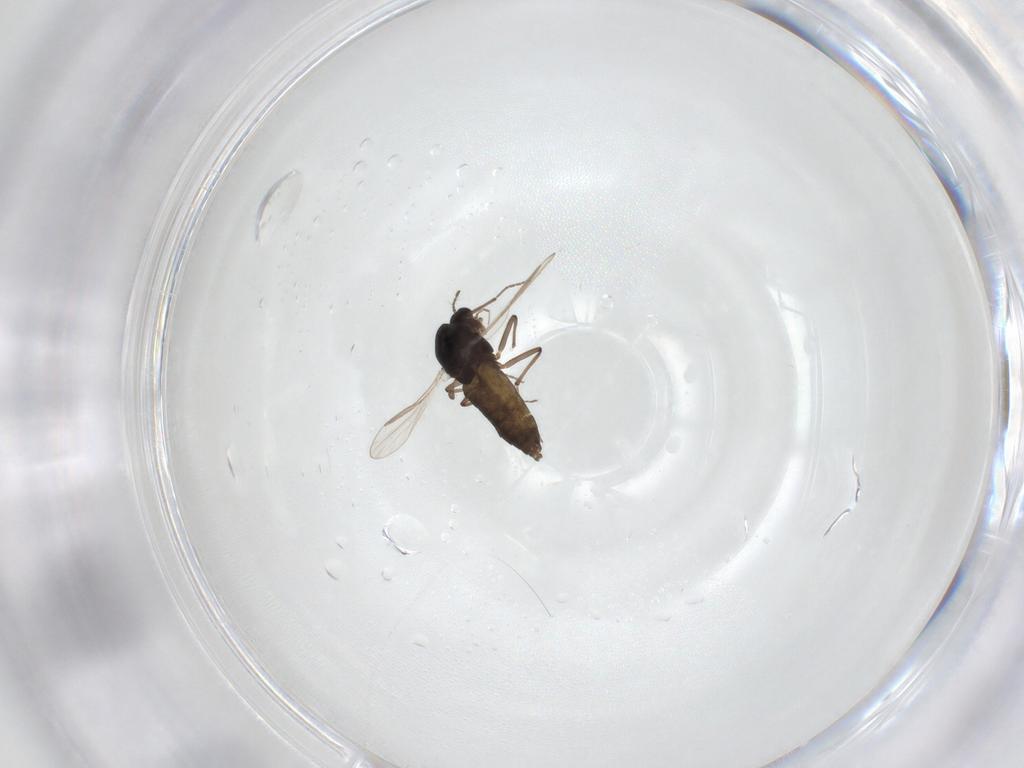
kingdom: Animalia
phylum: Arthropoda
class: Insecta
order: Diptera
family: Chironomidae
